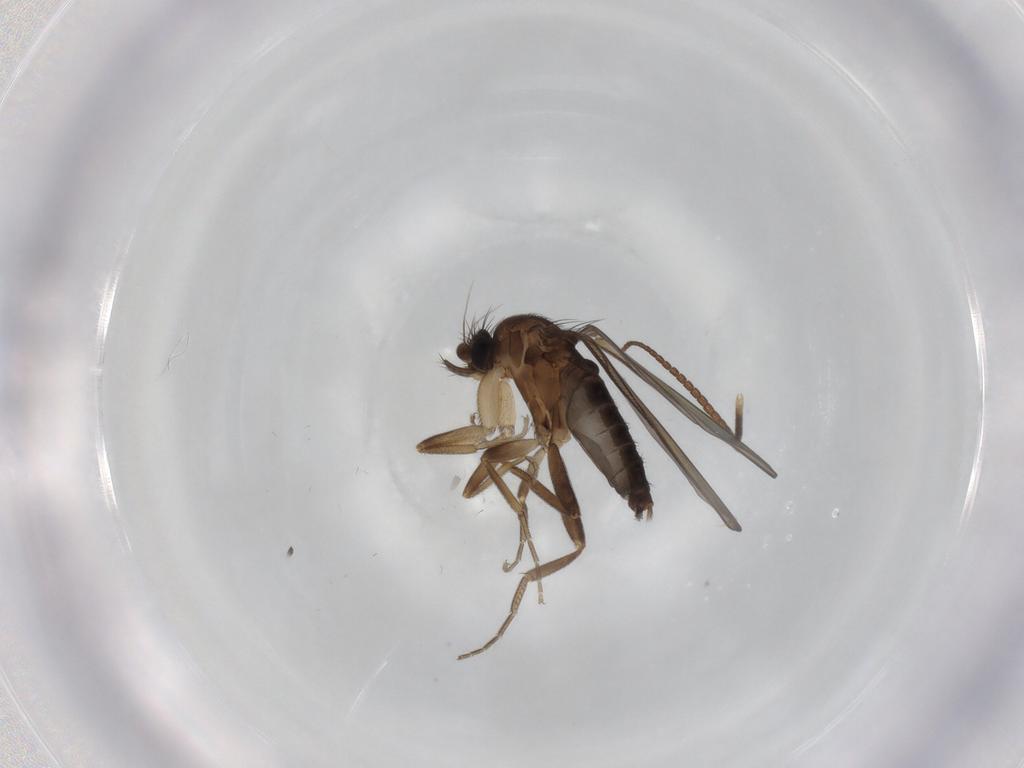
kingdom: Animalia
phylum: Arthropoda
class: Insecta
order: Diptera
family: Phoridae
